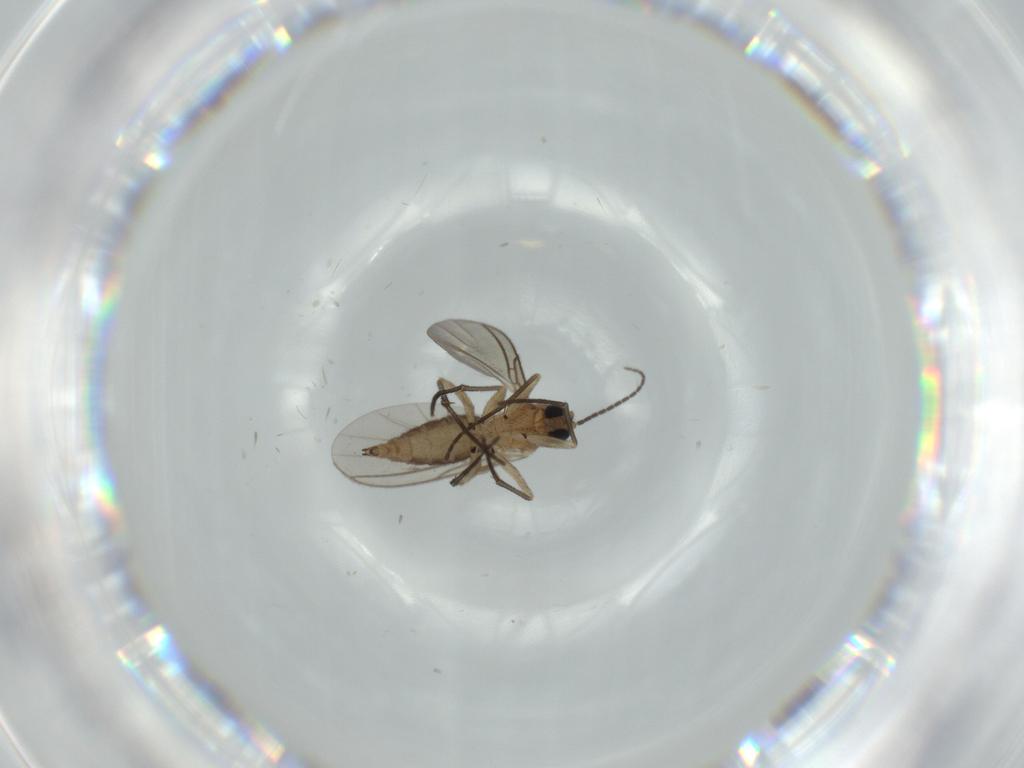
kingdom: Animalia
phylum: Arthropoda
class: Insecta
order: Diptera
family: Sciaridae
